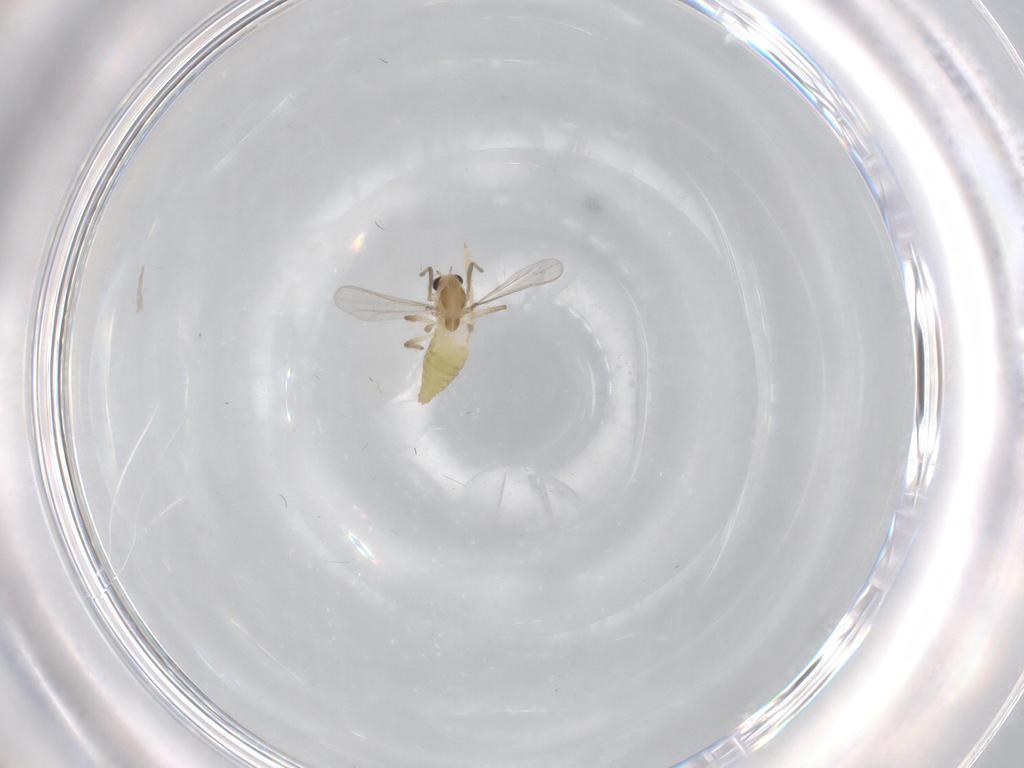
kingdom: Animalia
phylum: Arthropoda
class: Insecta
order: Diptera
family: Chironomidae
